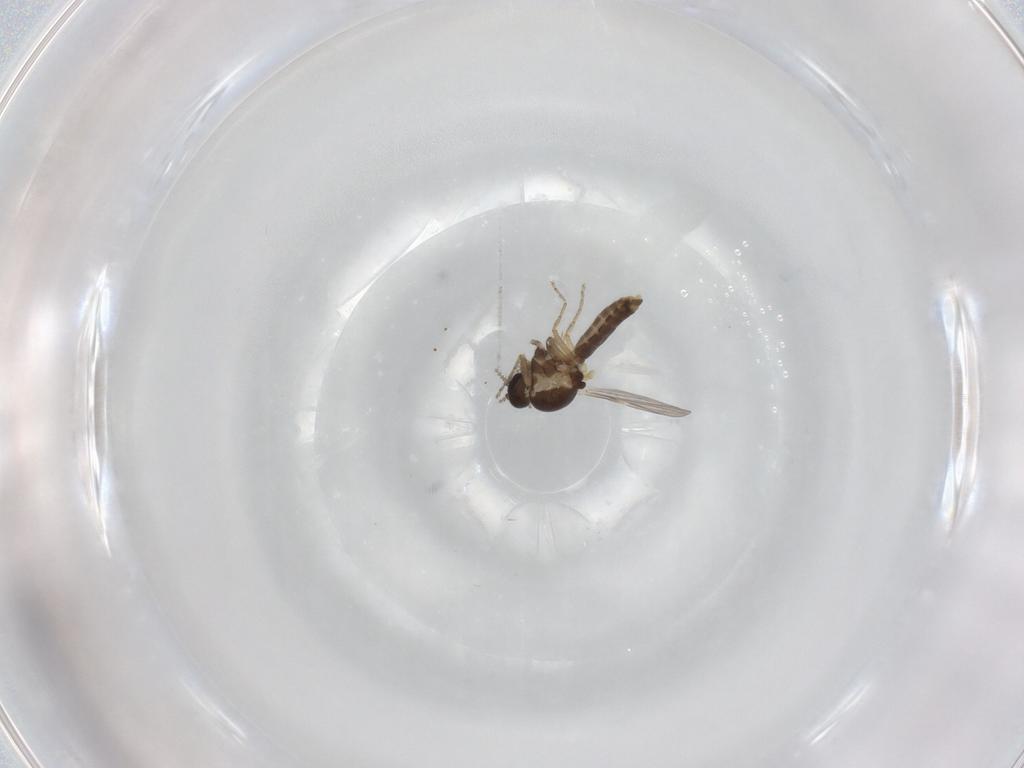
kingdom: Animalia
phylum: Arthropoda
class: Insecta
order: Diptera
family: Ceratopogonidae
